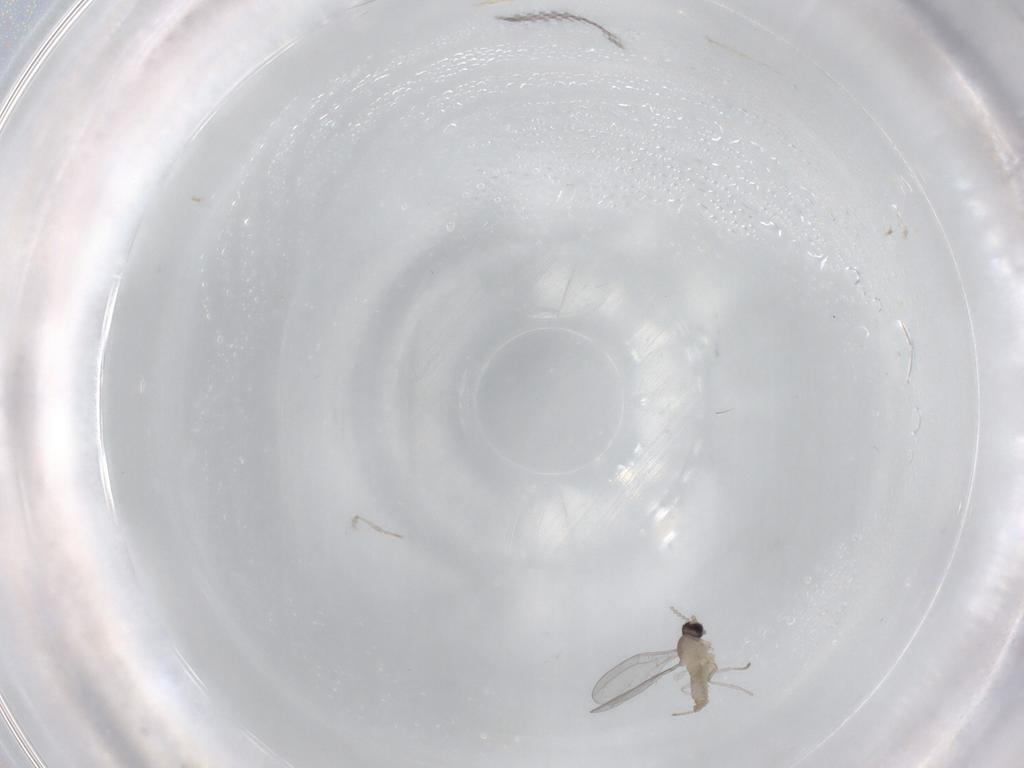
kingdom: Animalia
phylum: Arthropoda
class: Insecta
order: Diptera
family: Cecidomyiidae
